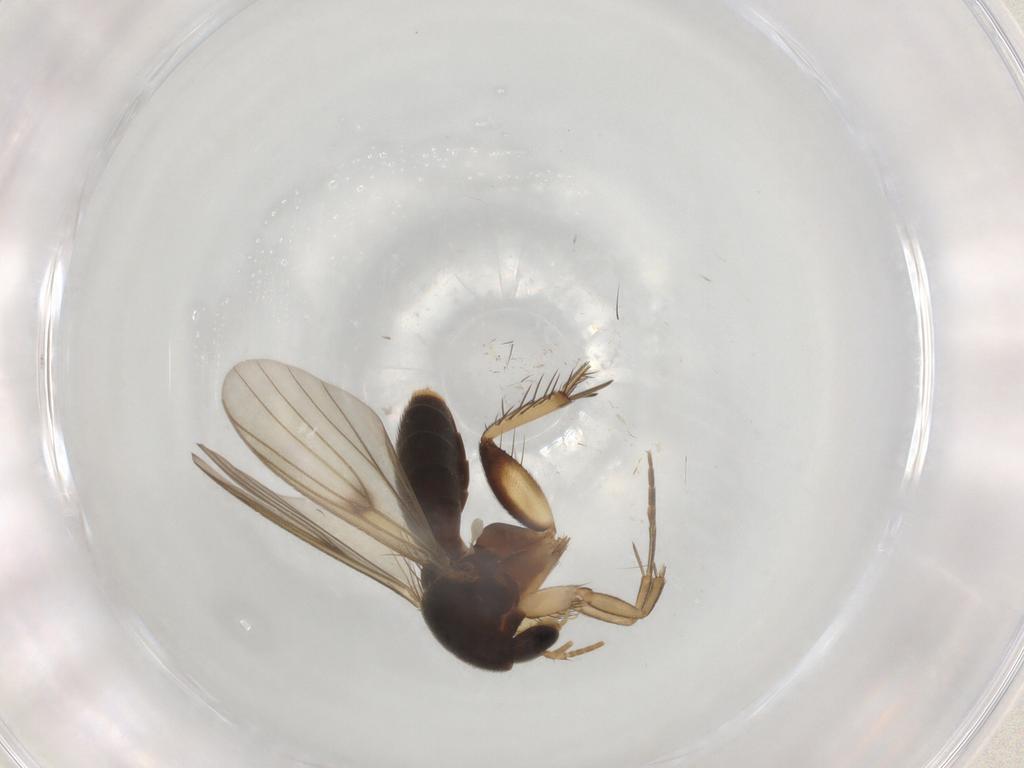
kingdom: Animalia
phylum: Arthropoda
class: Insecta
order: Diptera
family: Mycetophilidae
